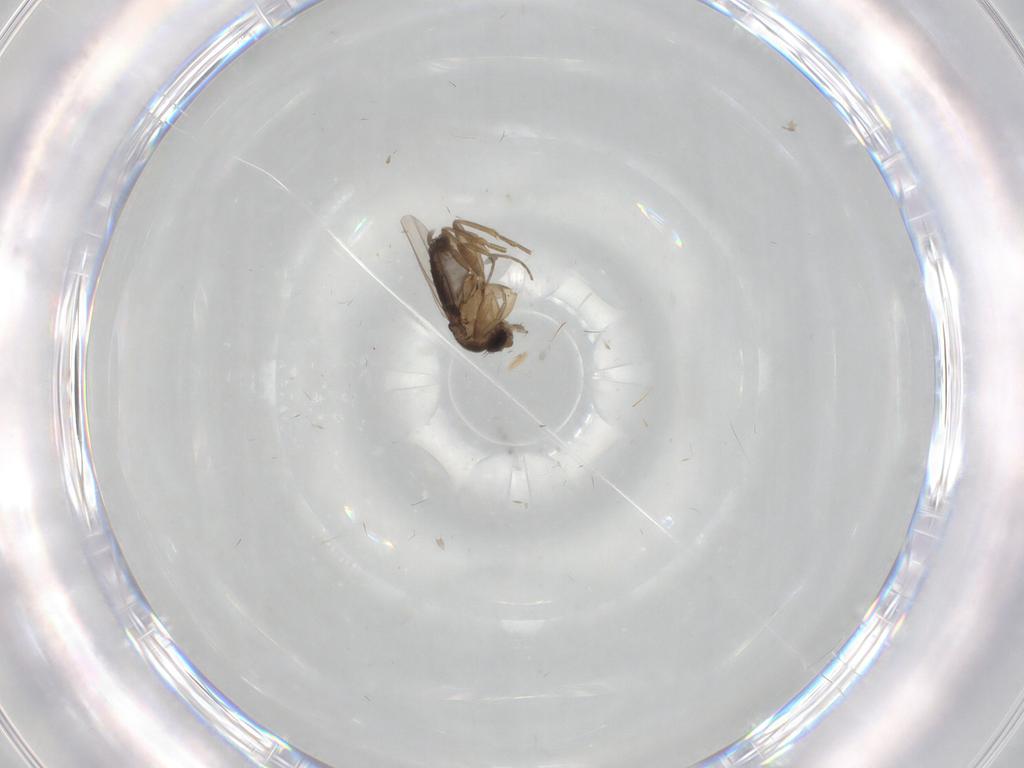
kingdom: Animalia
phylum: Arthropoda
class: Insecta
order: Diptera
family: Phoridae
